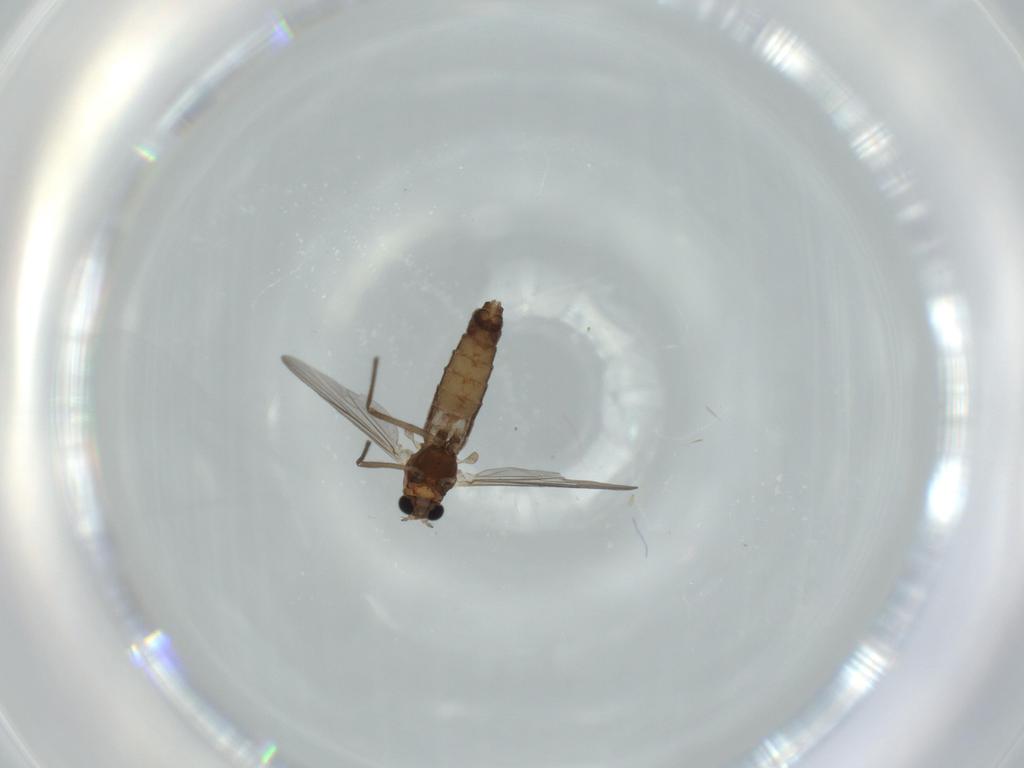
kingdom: Animalia
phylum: Arthropoda
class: Insecta
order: Diptera
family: Chironomidae
